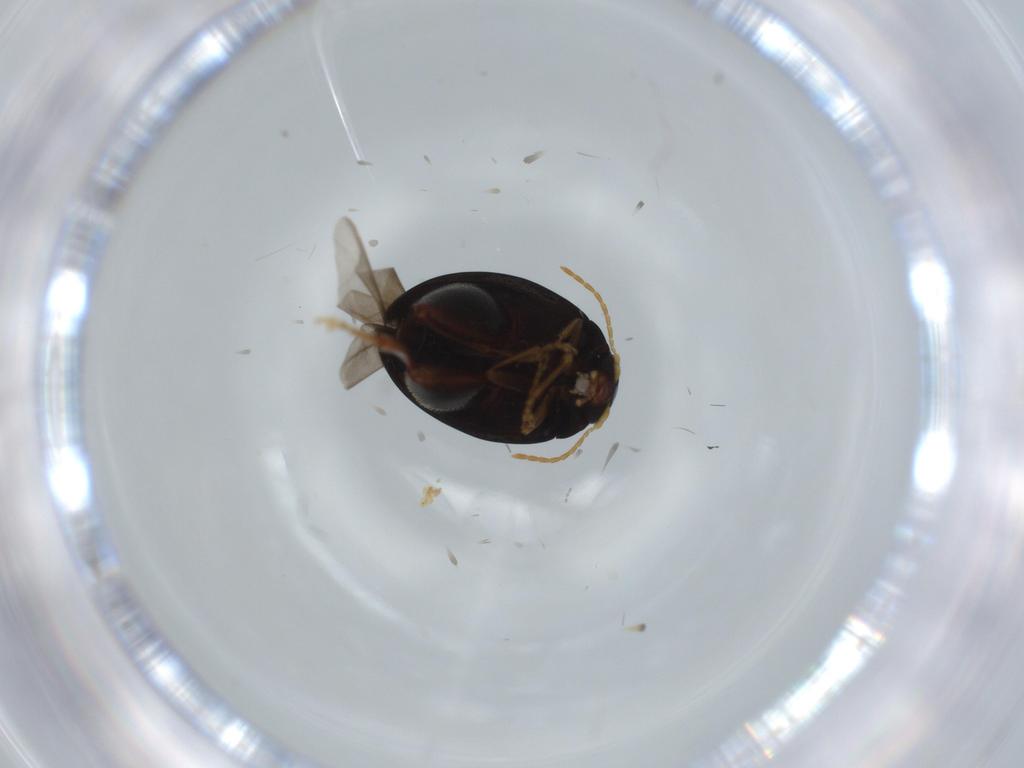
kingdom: Animalia
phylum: Arthropoda
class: Insecta
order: Coleoptera
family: Chrysomelidae
